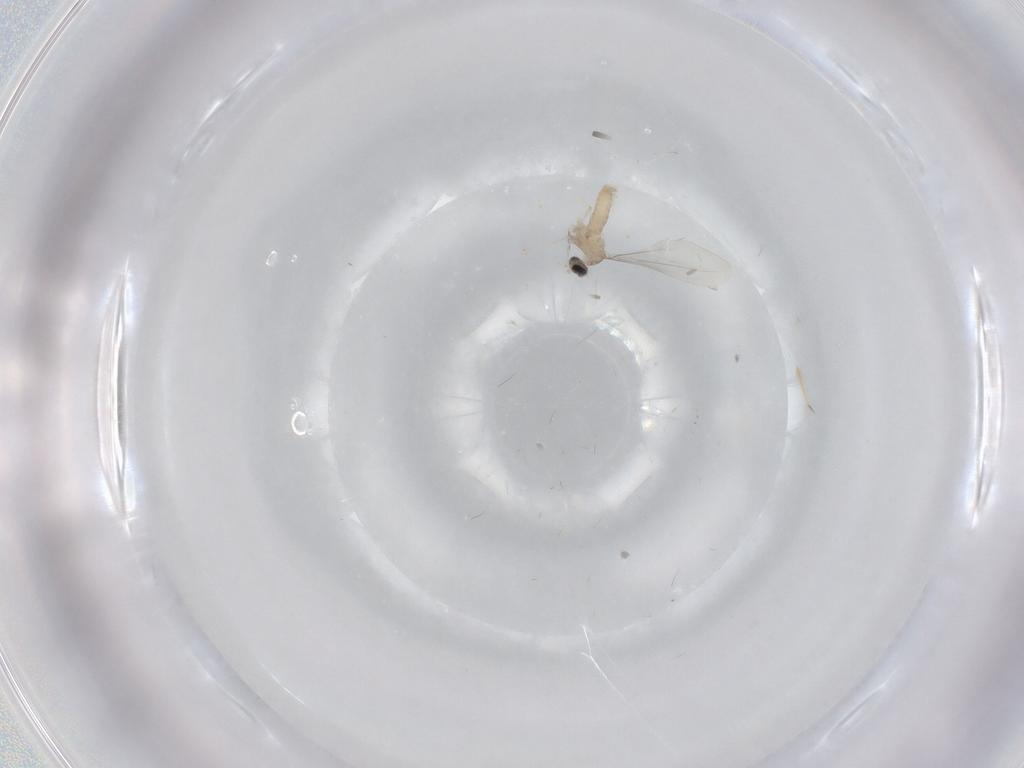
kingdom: Animalia
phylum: Arthropoda
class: Insecta
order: Diptera
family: Cecidomyiidae
